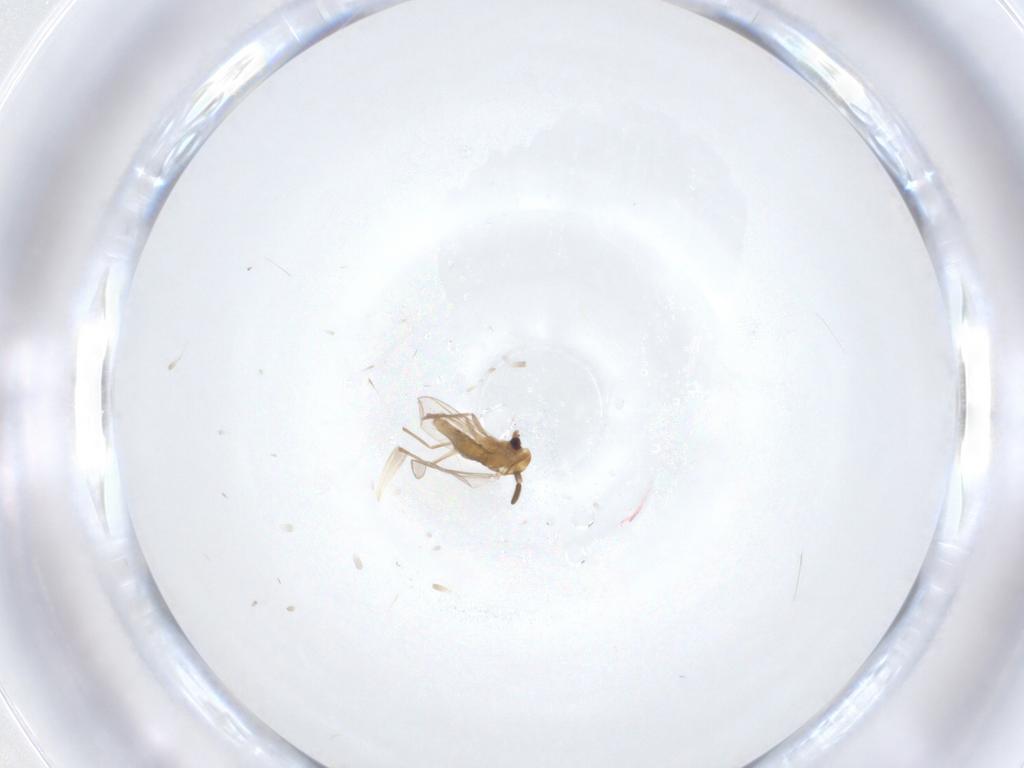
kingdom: Animalia
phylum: Arthropoda
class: Insecta
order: Diptera
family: Chironomidae
